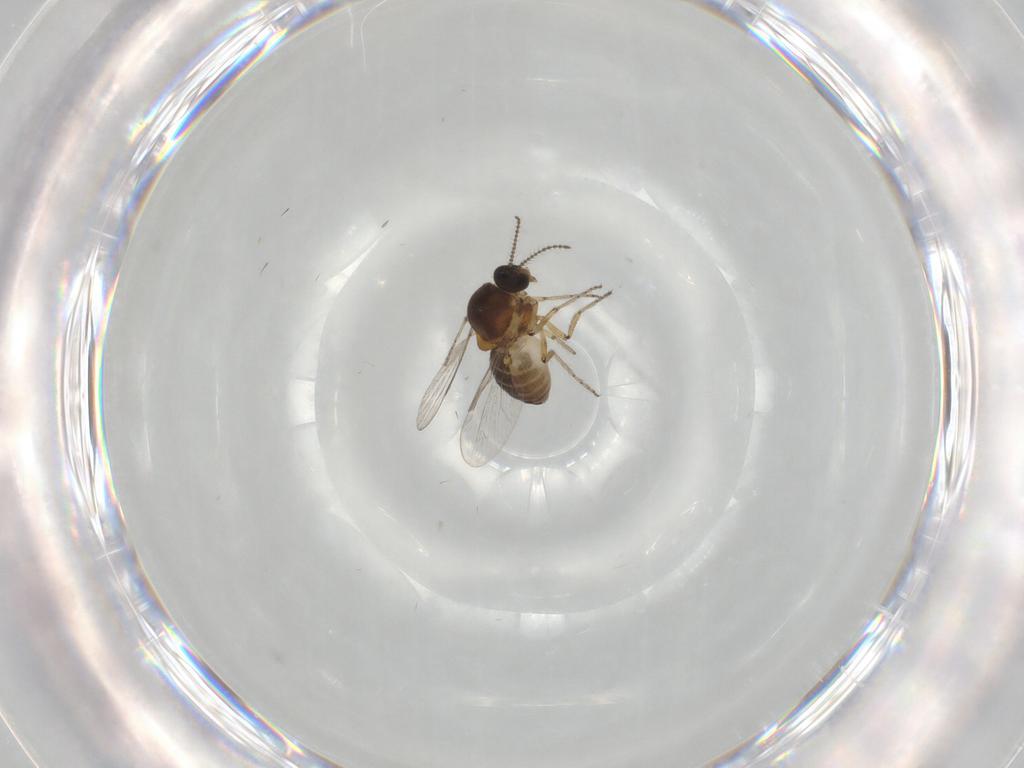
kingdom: Animalia
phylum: Arthropoda
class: Insecta
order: Diptera
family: Ceratopogonidae
